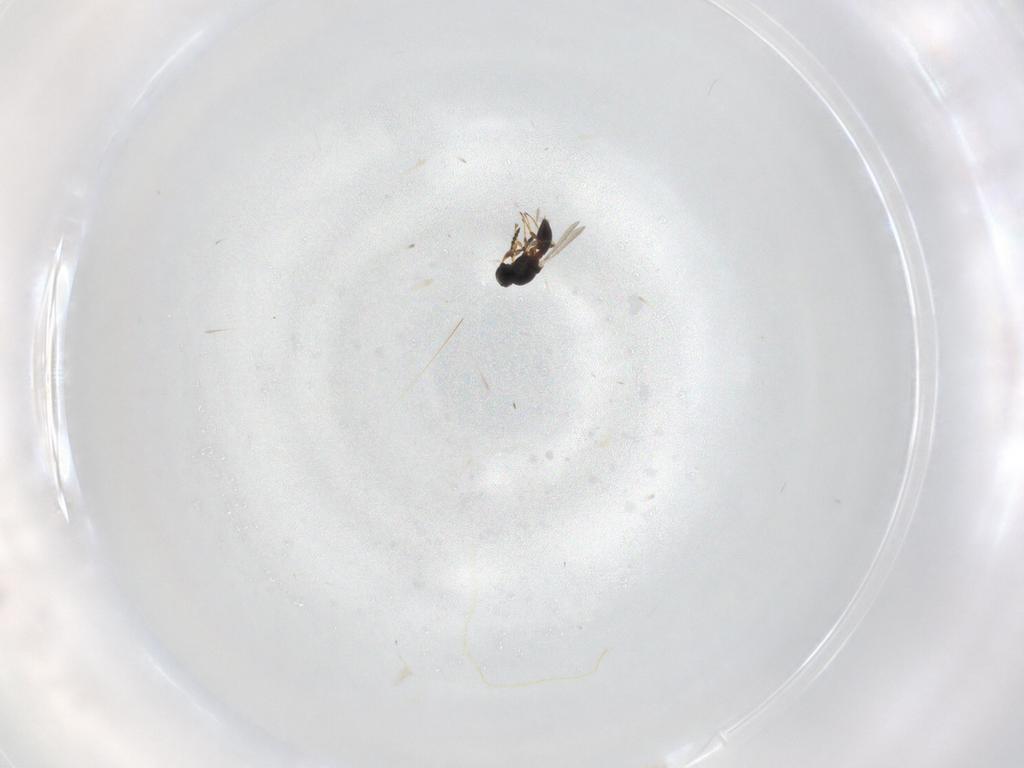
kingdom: Animalia
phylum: Arthropoda
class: Insecta
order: Hymenoptera
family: Platygastridae
